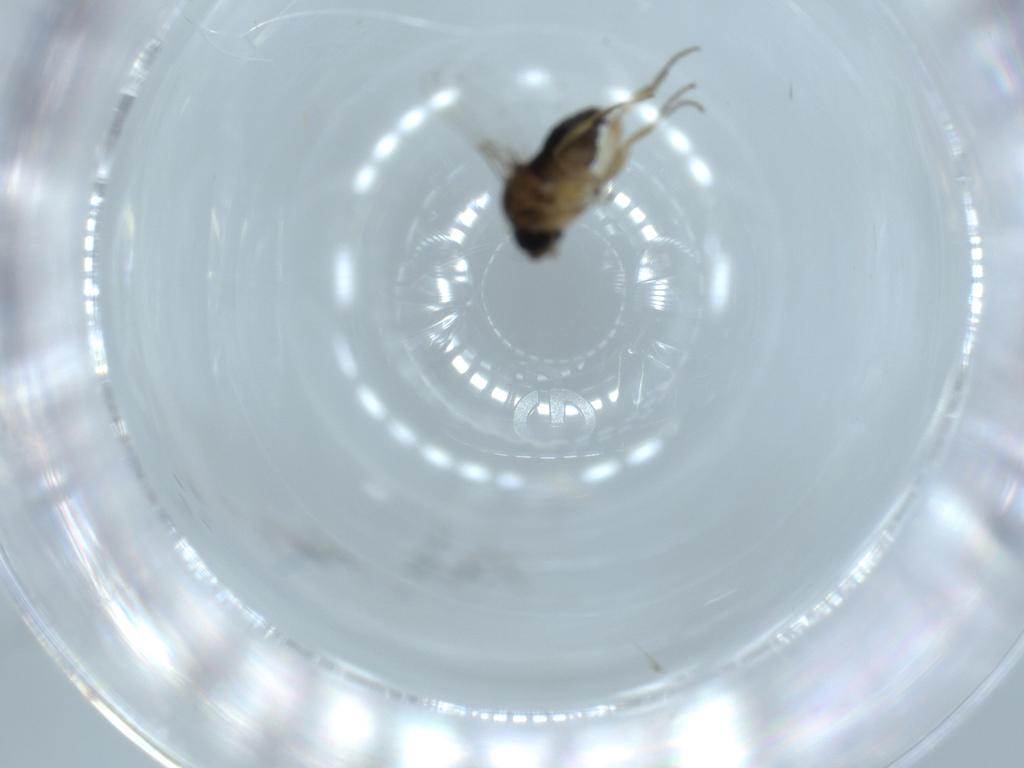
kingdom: Animalia
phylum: Arthropoda
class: Insecta
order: Diptera
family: Phoridae
